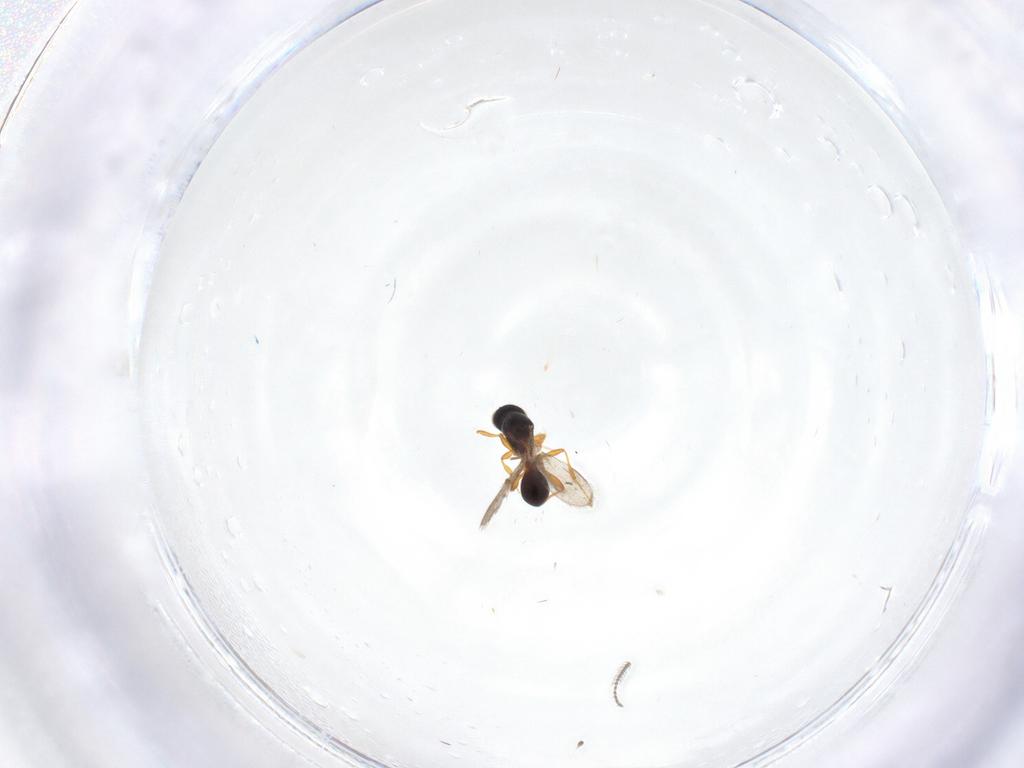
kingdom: Animalia
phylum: Arthropoda
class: Insecta
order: Hymenoptera
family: Platygastridae
